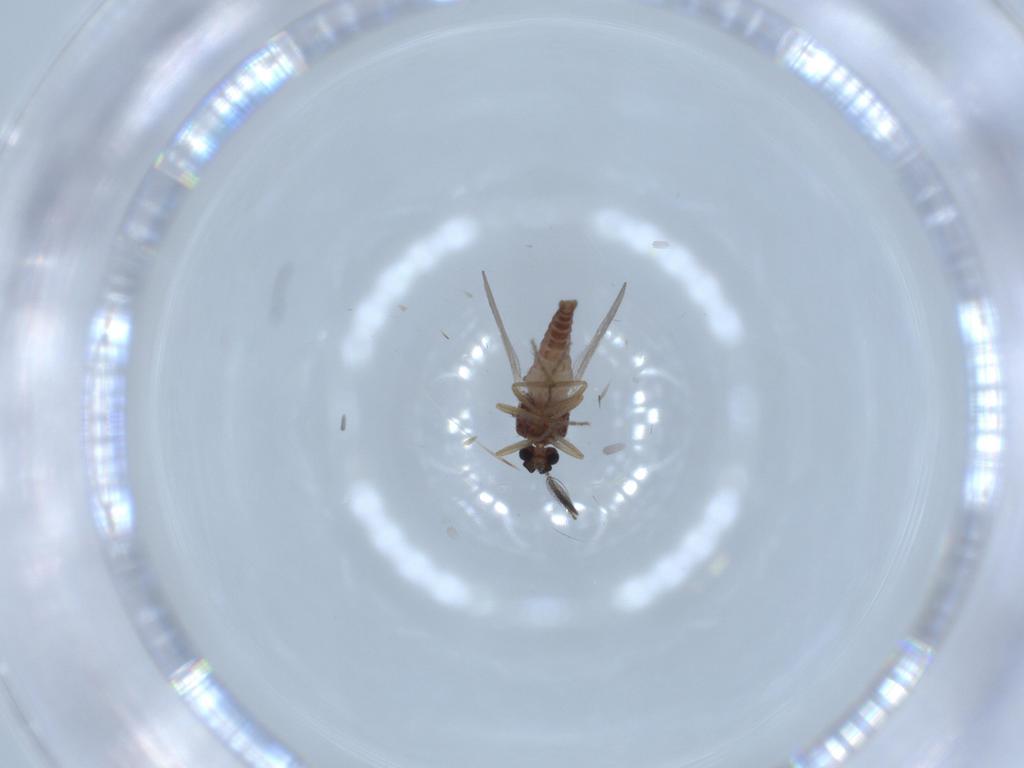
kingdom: Animalia
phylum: Arthropoda
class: Insecta
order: Diptera
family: Ceratopogonidae
